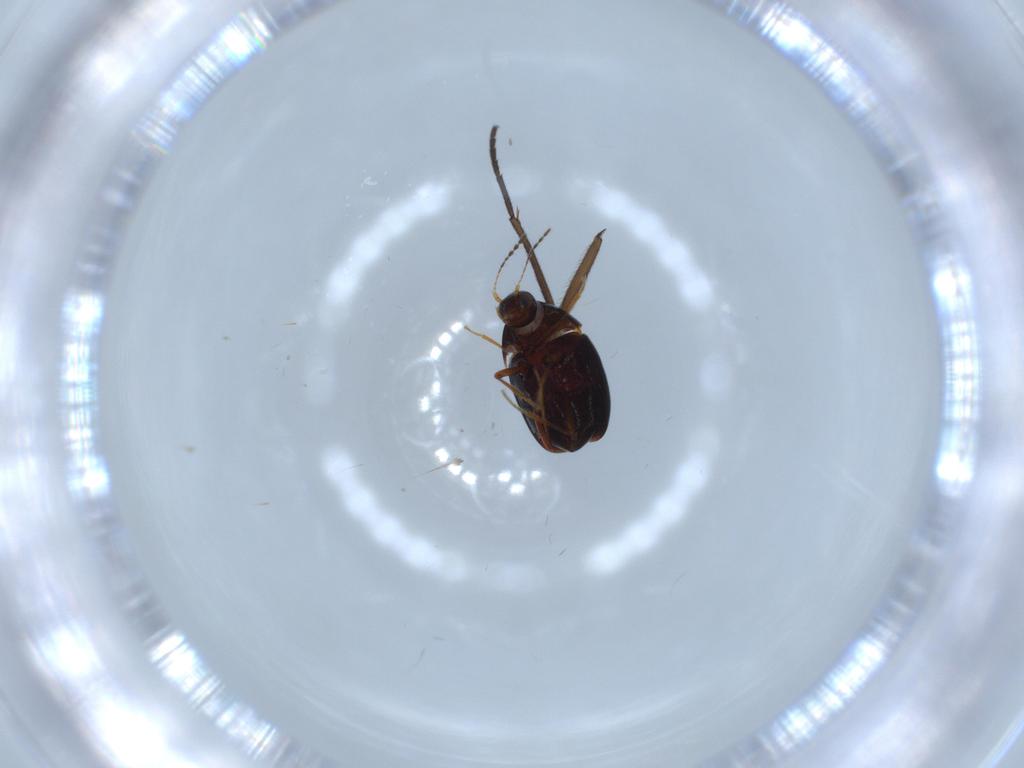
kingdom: Animalia
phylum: Arthropoda
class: Insecta
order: Coleoptera
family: Staphylinidae
